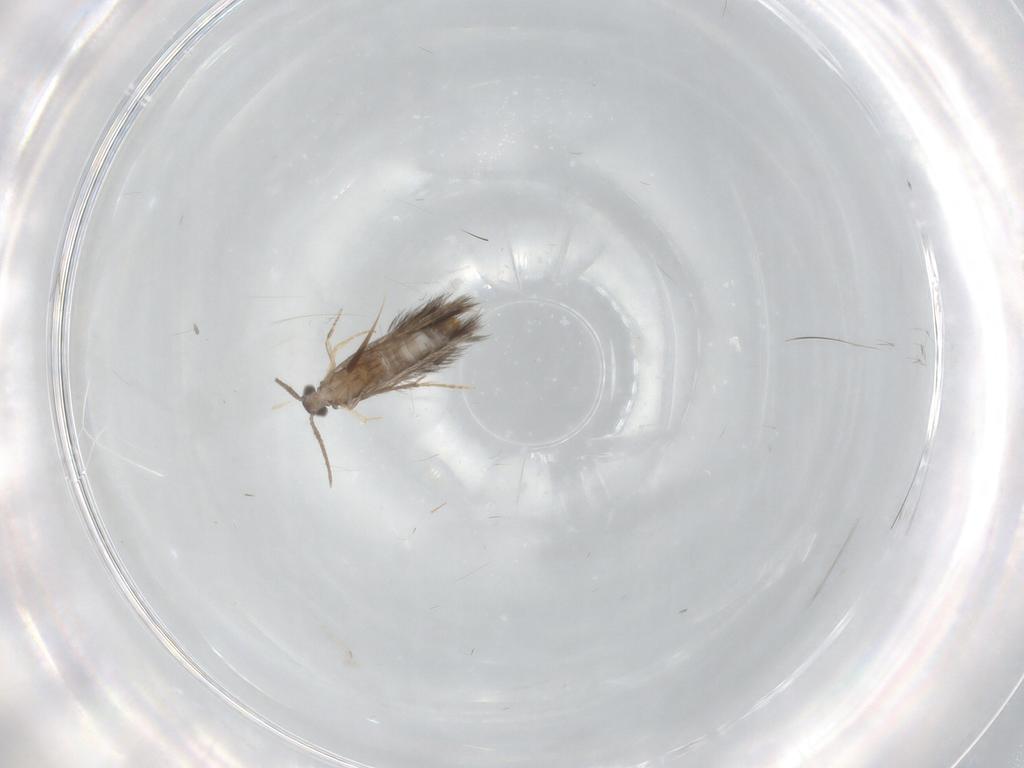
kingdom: Animalia
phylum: Arthropoda
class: Insecta
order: Trichoptera
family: Hydroptilidae
